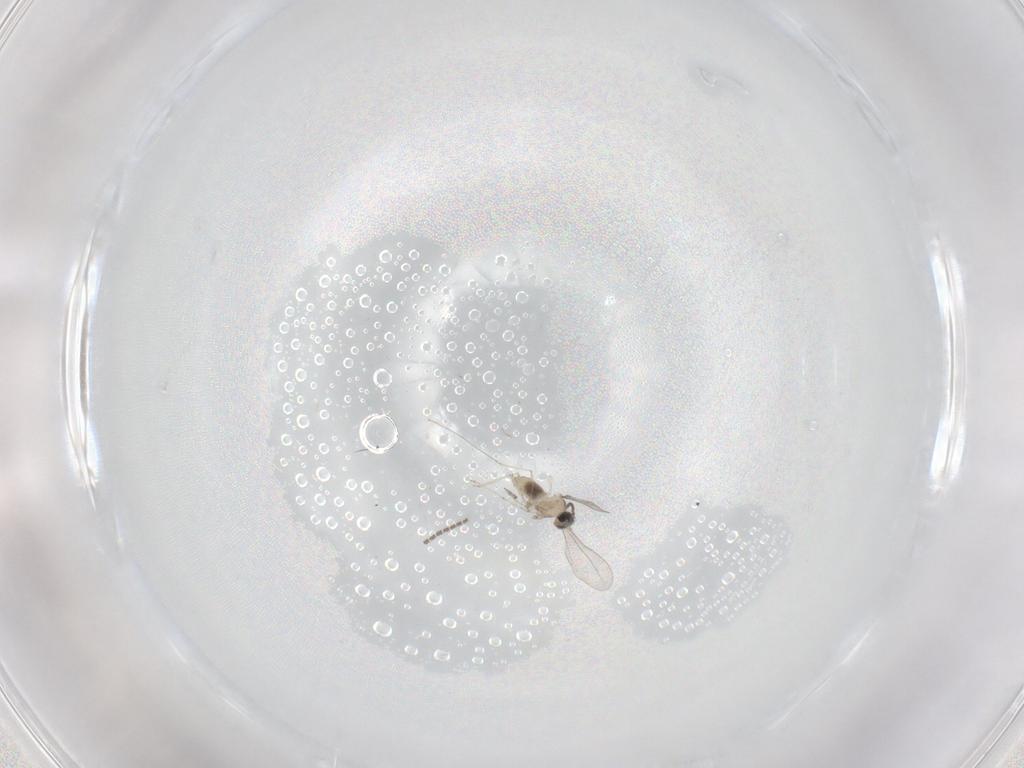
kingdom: Animalia
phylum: Arthropoda
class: Insecta
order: Diptera
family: Cecidomyiidae
